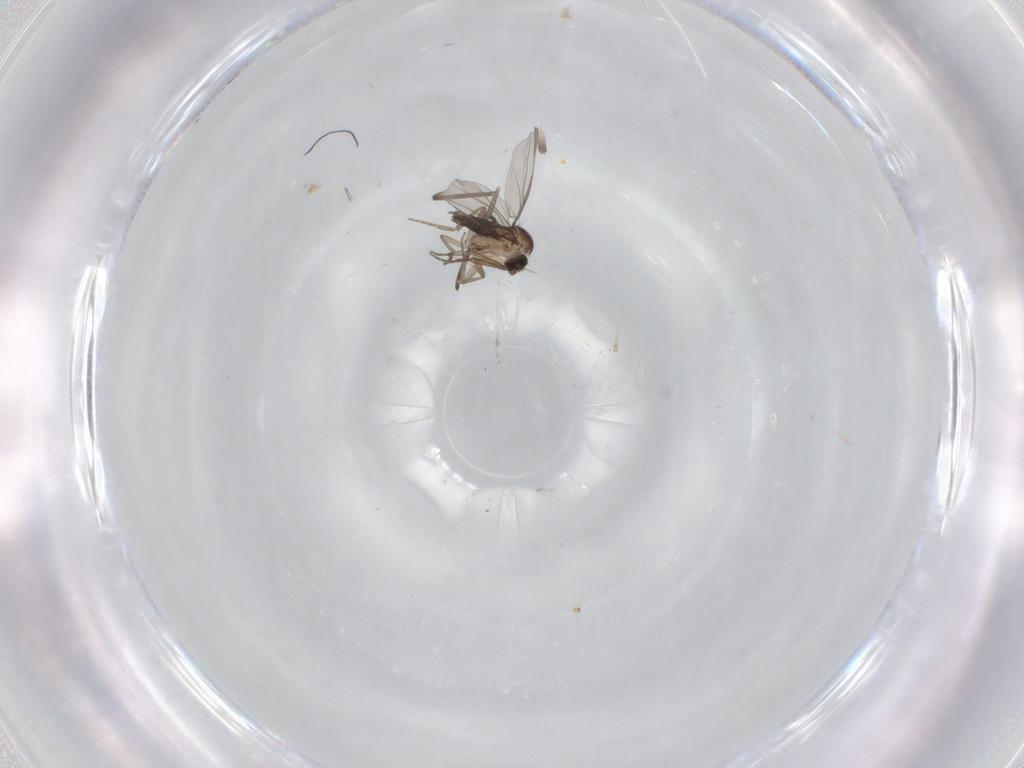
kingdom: Animalia
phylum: Arthropoda
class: Insecta
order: Diptera
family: Phoridae
